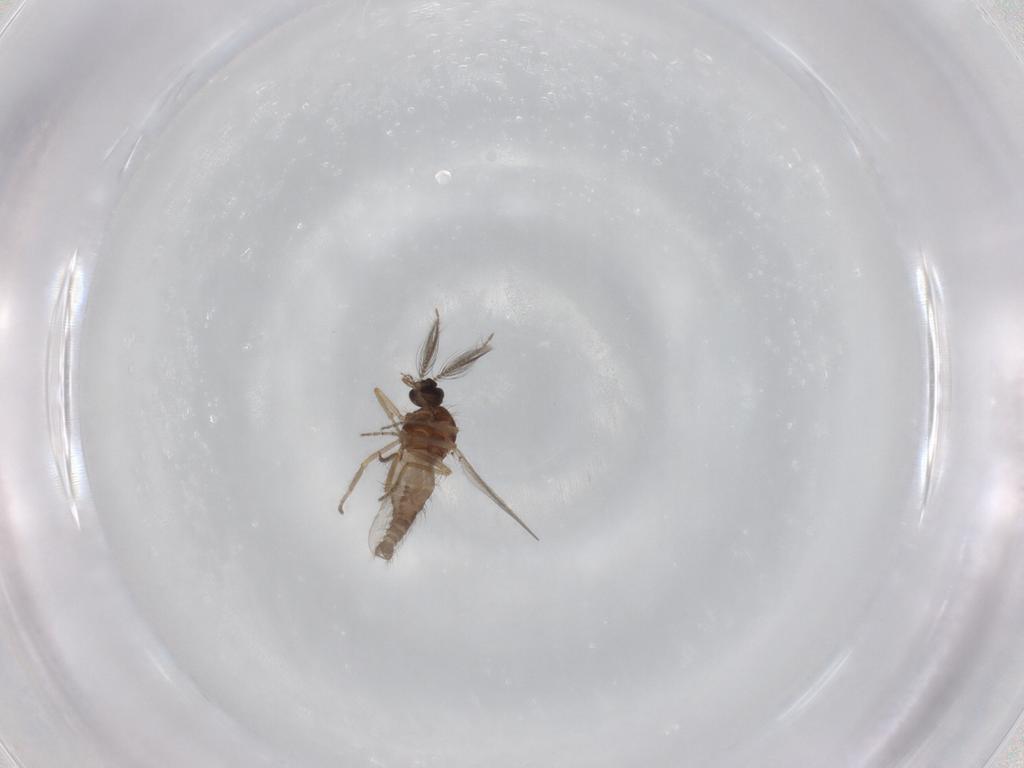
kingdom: Animalia
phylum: Arthropoda
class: Insecta
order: Diptera
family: Ceratopogonidae
